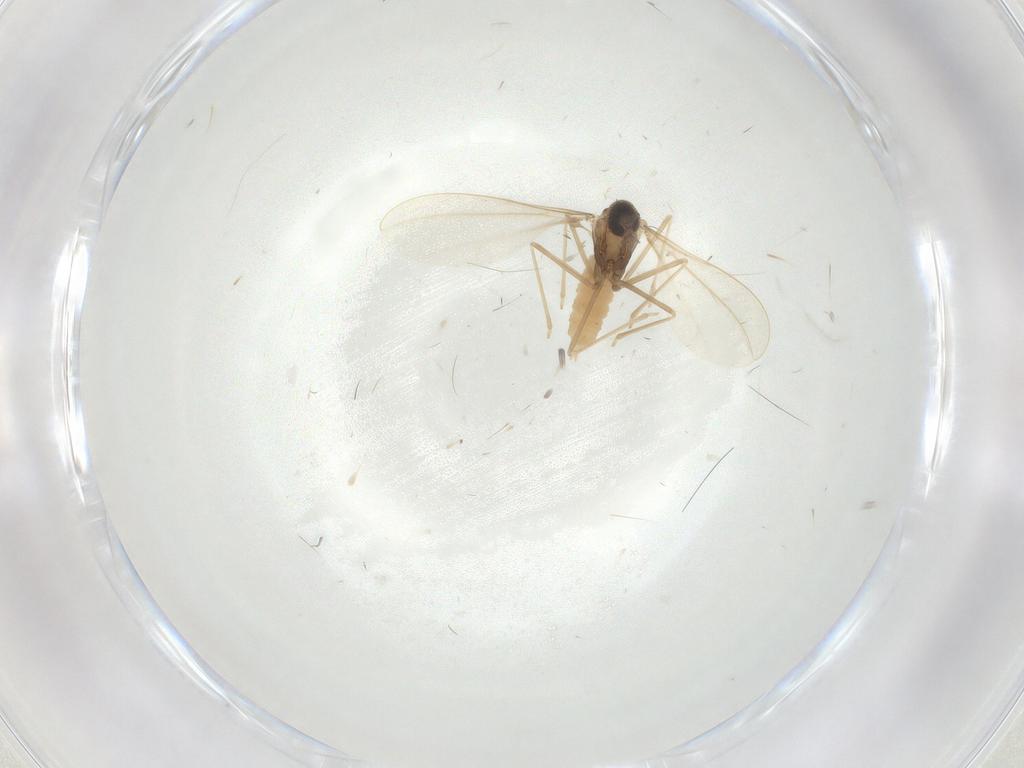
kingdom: Animalia
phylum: Arthropoda
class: Insecta
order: Diptera
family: Cecidomyiidae
